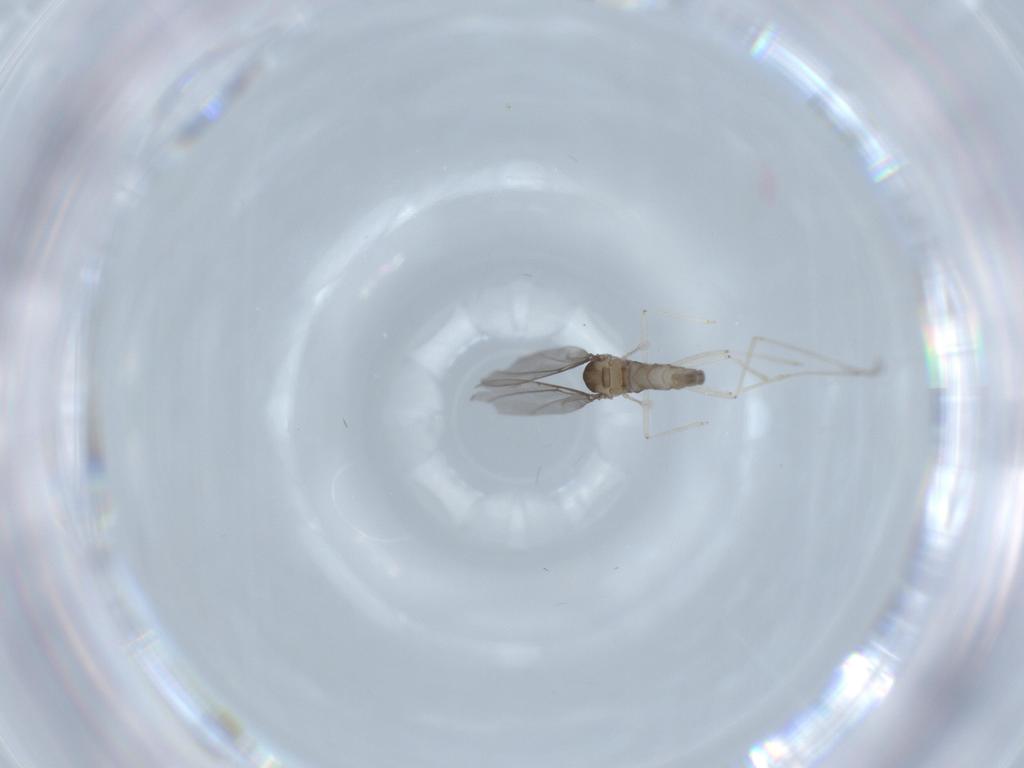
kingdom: Animalia
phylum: Arthropoda
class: Insecta
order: Diptera
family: Cecidomyiidae
